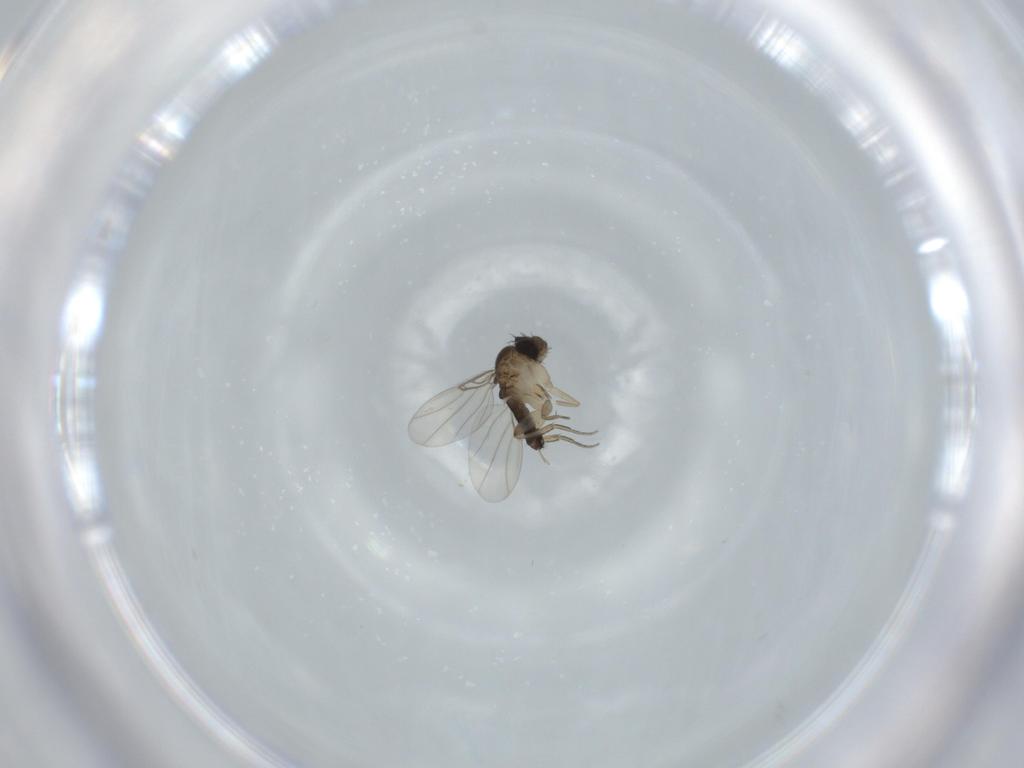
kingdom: Animalia
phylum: Arthropoda
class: Insecta
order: Diptera
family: Phoridae
